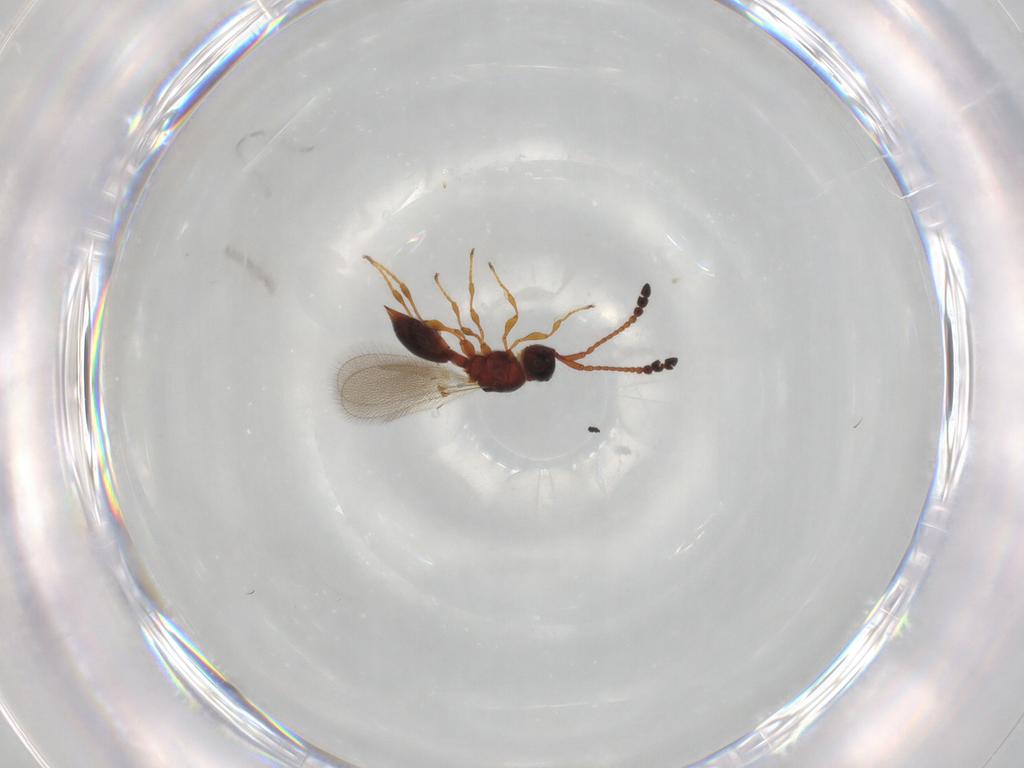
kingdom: Animalia
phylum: Arthropoda
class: Insecta
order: Hymenoptera
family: Diapriidae
